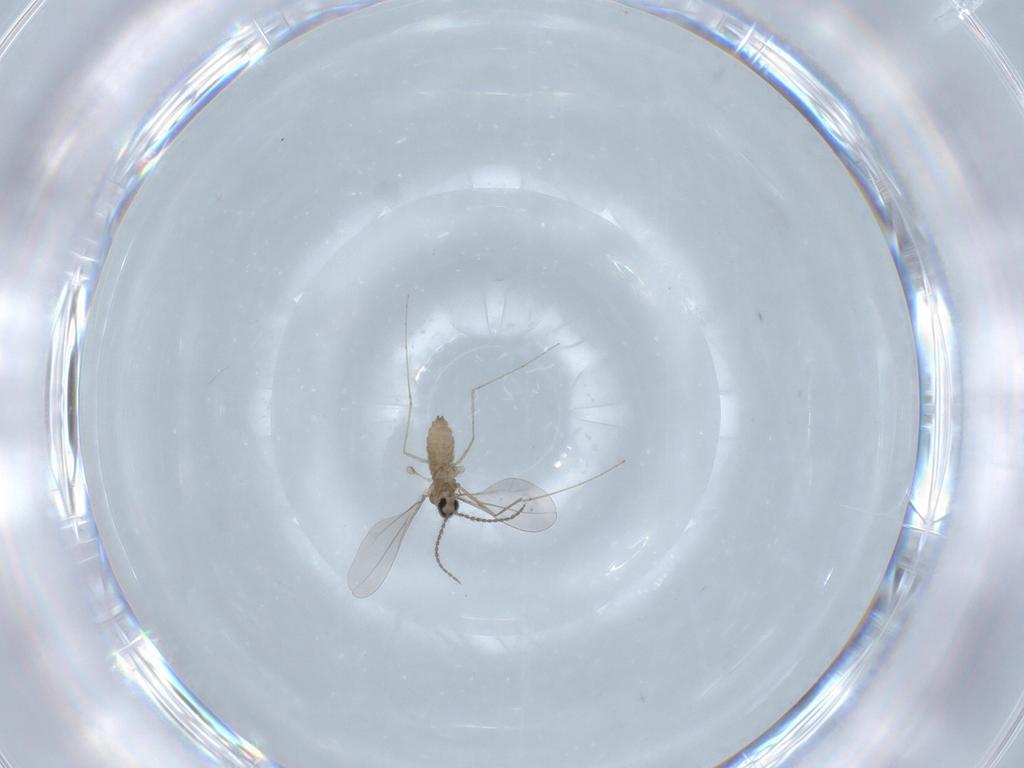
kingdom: Animalia
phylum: Arthropoda
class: Insecta
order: Diptera
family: Cecidomyiidae
